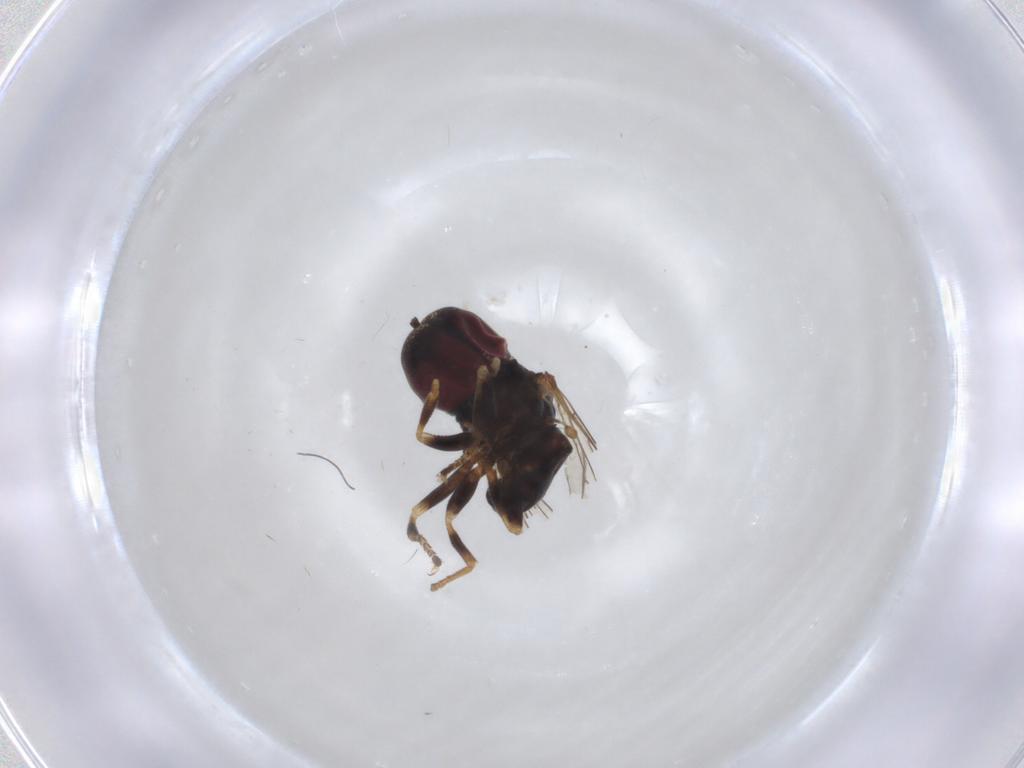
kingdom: Animalia
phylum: Arthropoda
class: Insecta
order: Diptera
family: Pipunculidae
